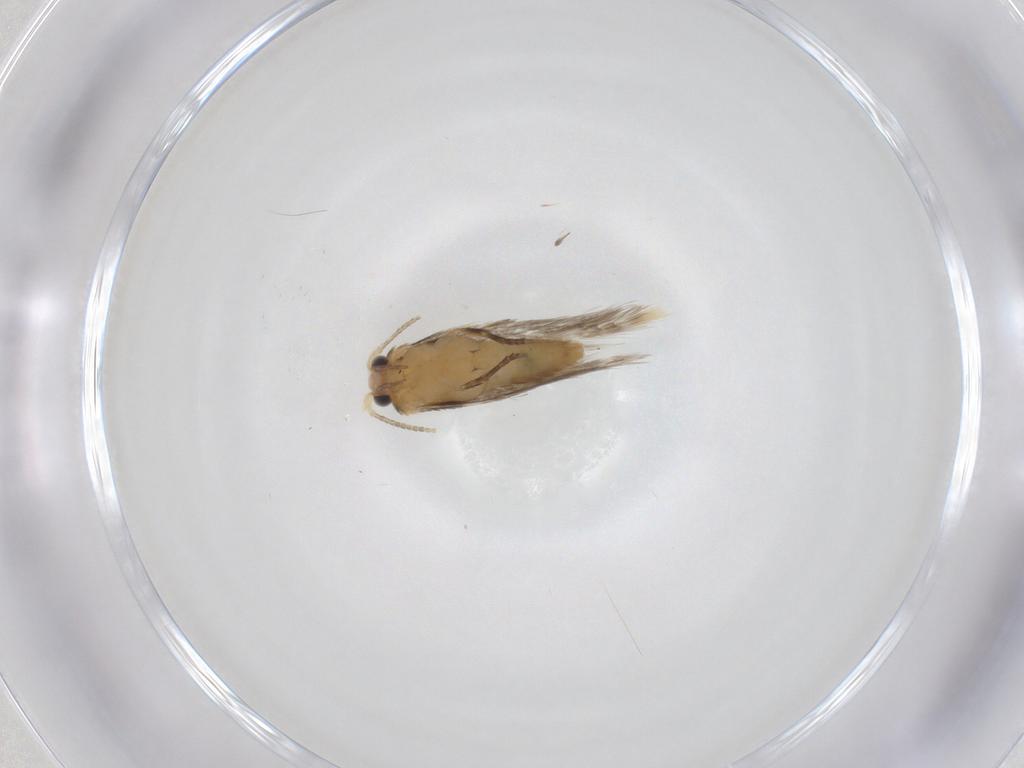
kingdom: Animalia
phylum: Arthropoda
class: Insecta
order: Lepidoptera
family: Nepticulidae
